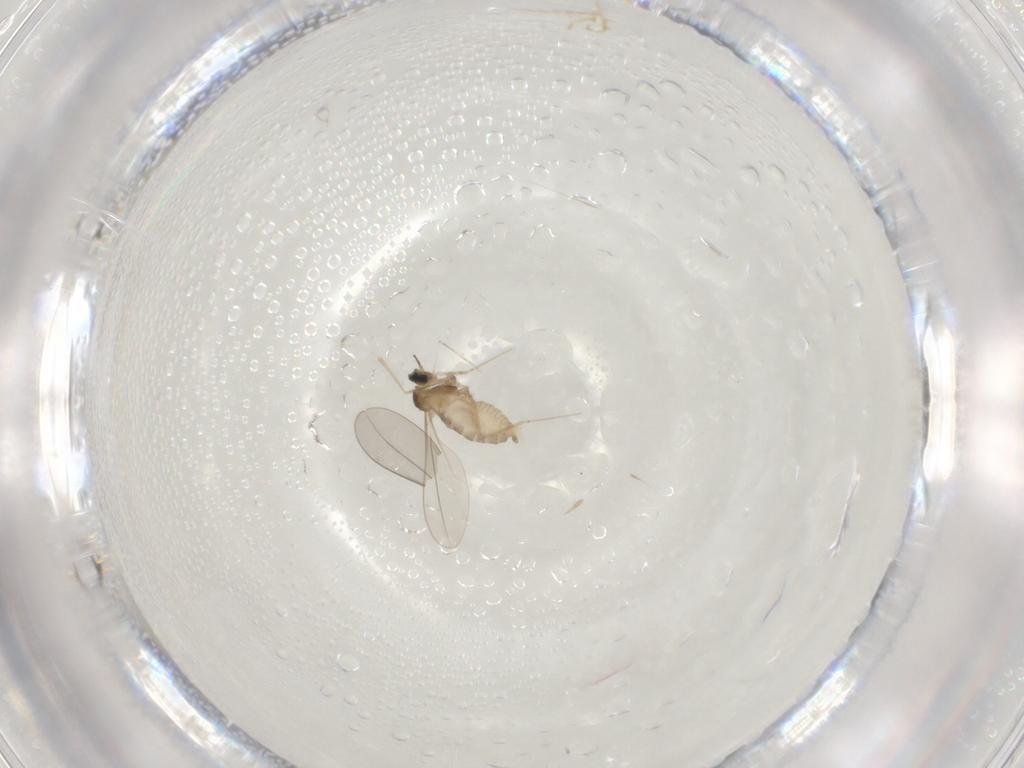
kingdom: Animalia
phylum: Arthropoda
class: Insecta
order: Diptera
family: Cecidomyiidae
